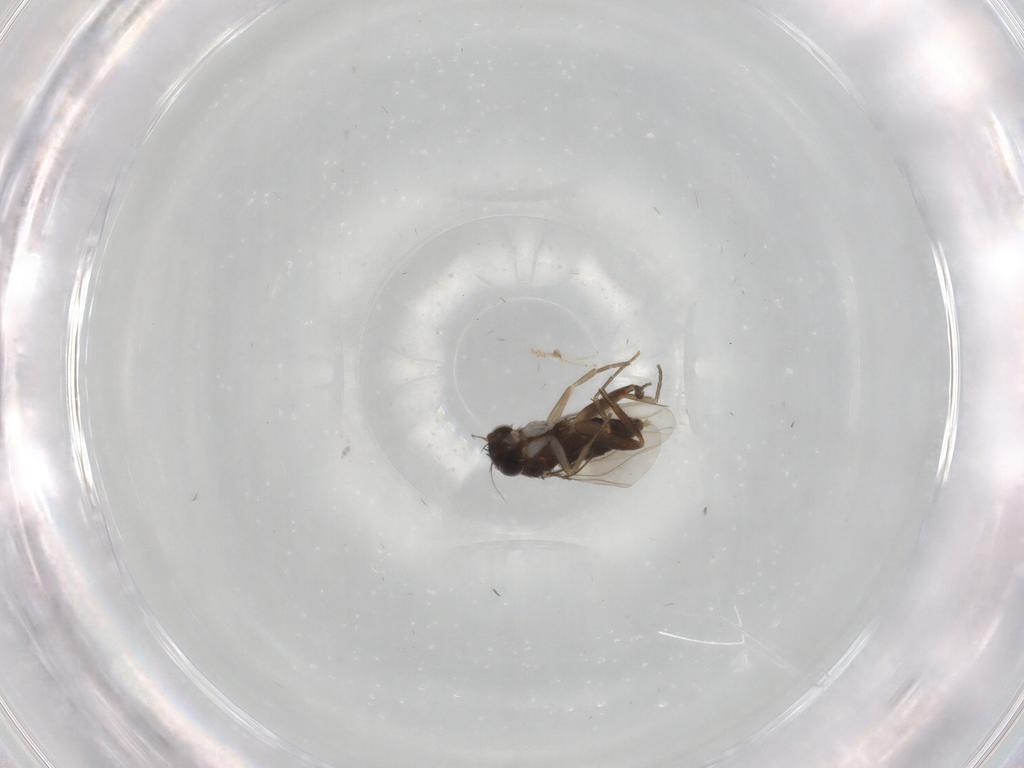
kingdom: Animalia
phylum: Arthropoda
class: Insecta
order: Diptera
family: Phoridae
